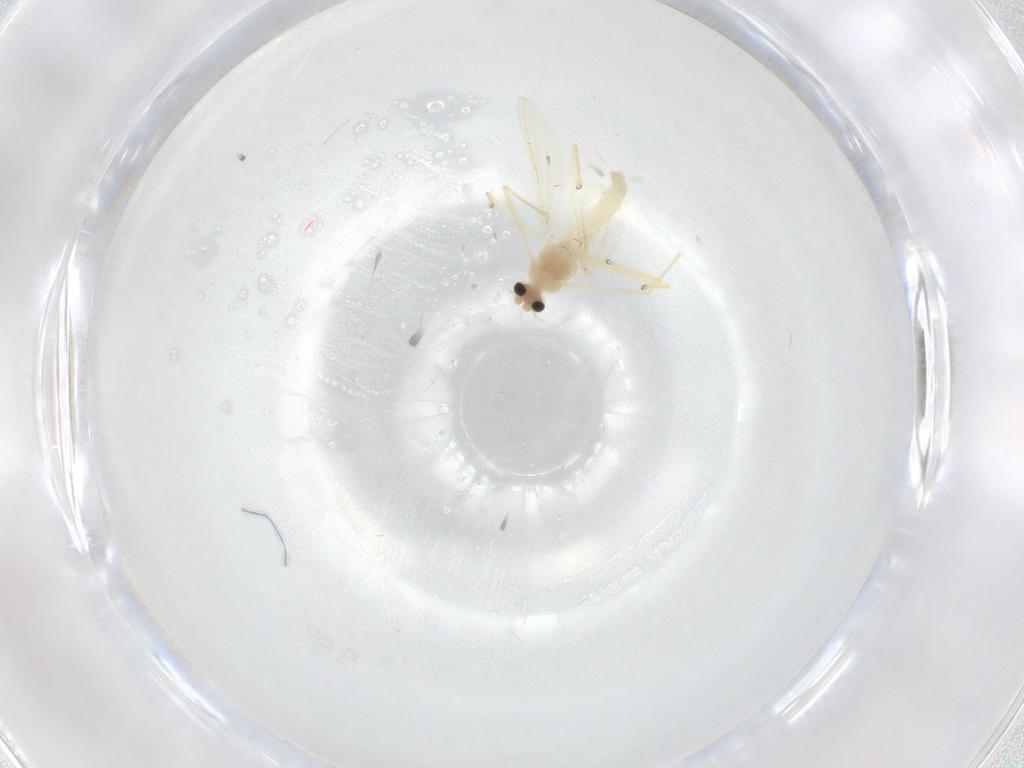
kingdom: Animalia
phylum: Arthropoda
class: Insecta
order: Diptera
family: Chironomidae
